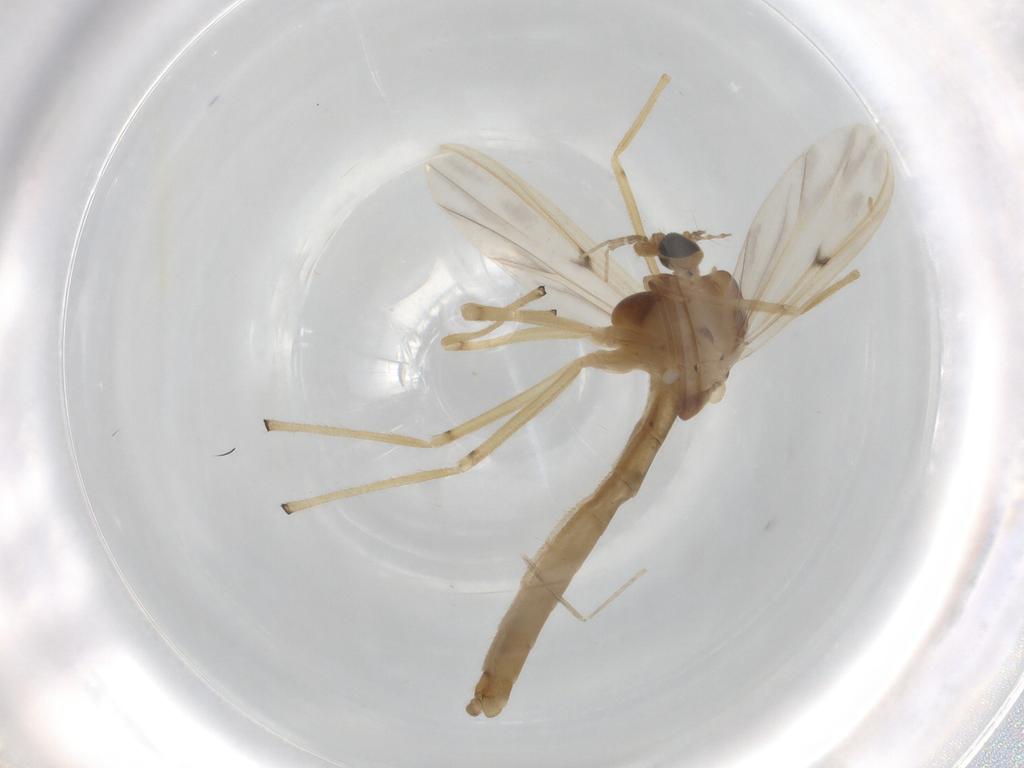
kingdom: Animalia
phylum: Arthropoda
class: Insecta
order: Diptera
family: Chironomidae
